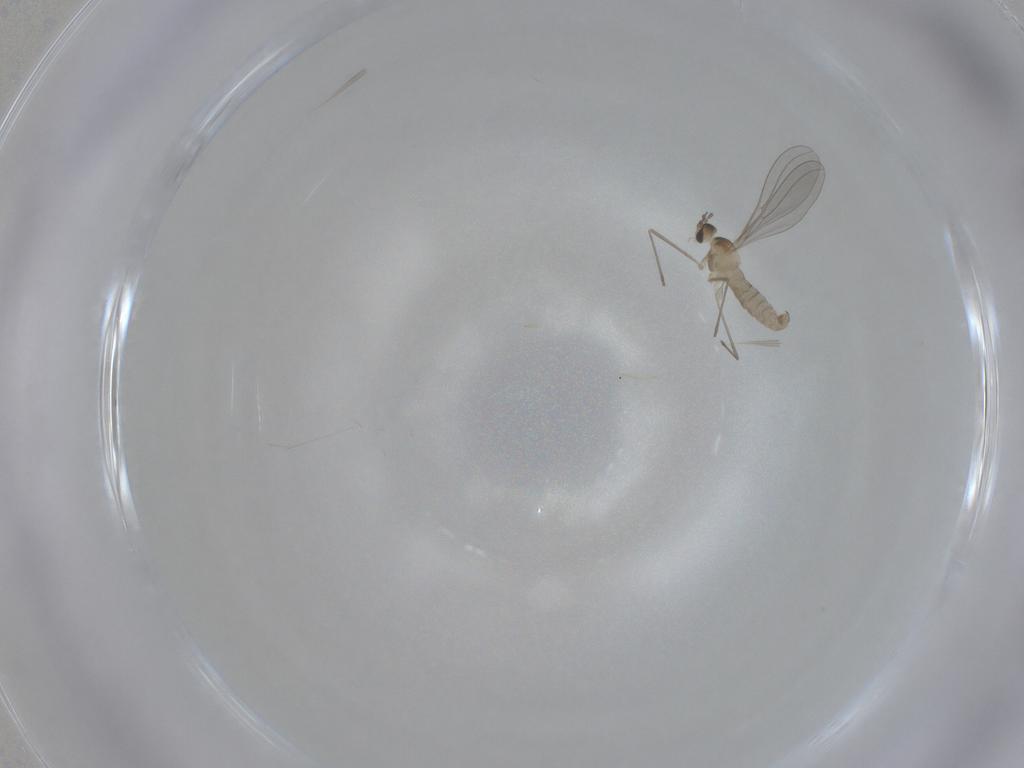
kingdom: Animalia
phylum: Arthropoda
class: Insecta
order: Diptera
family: Cecidomyiidae
